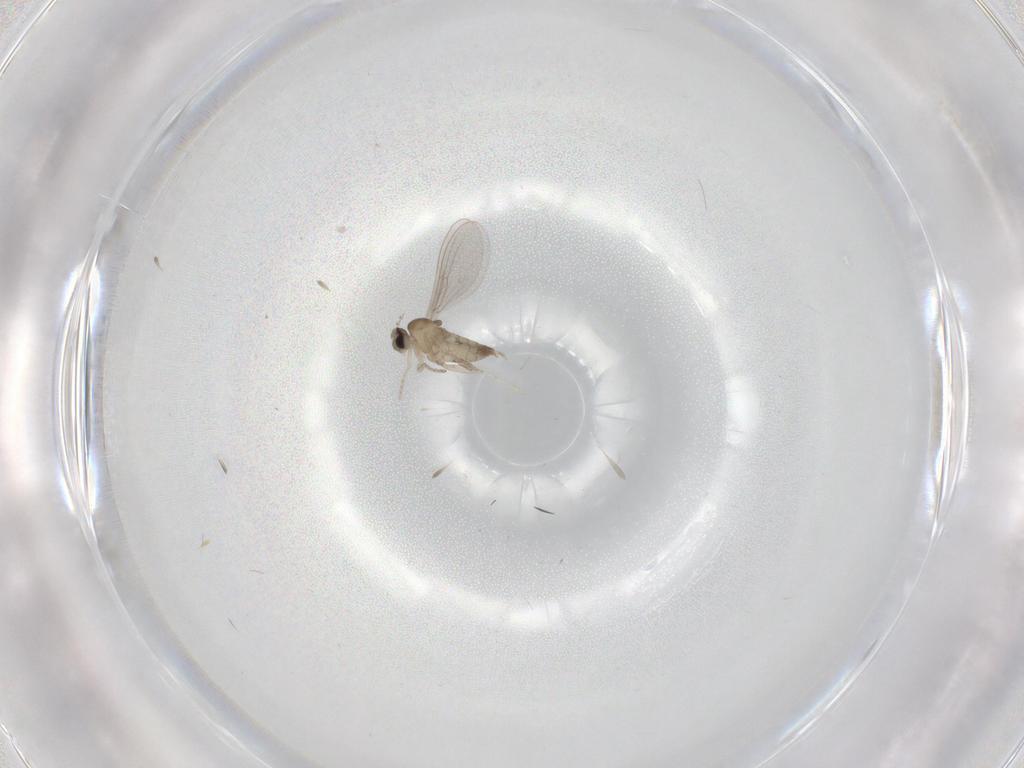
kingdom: Animalia
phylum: Arthropoda
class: Insecta
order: Diptera
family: Cecidomyiidae
